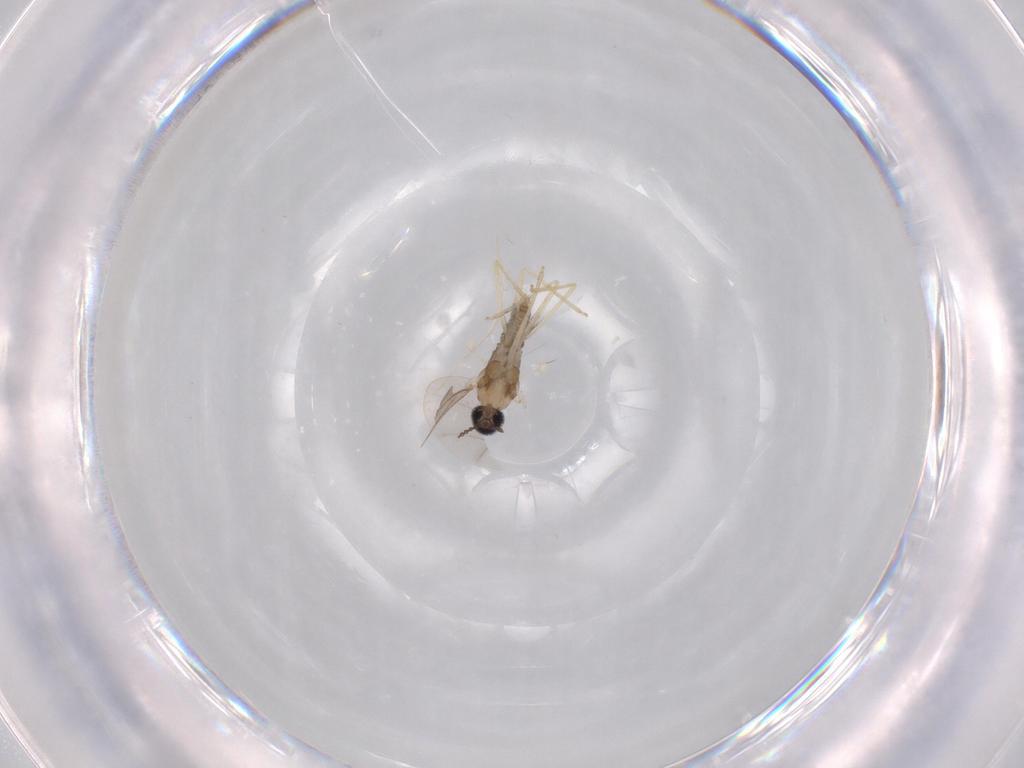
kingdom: Animalia
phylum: Arthropoda
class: Insecta
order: Diptera
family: Cecidomyiidae
